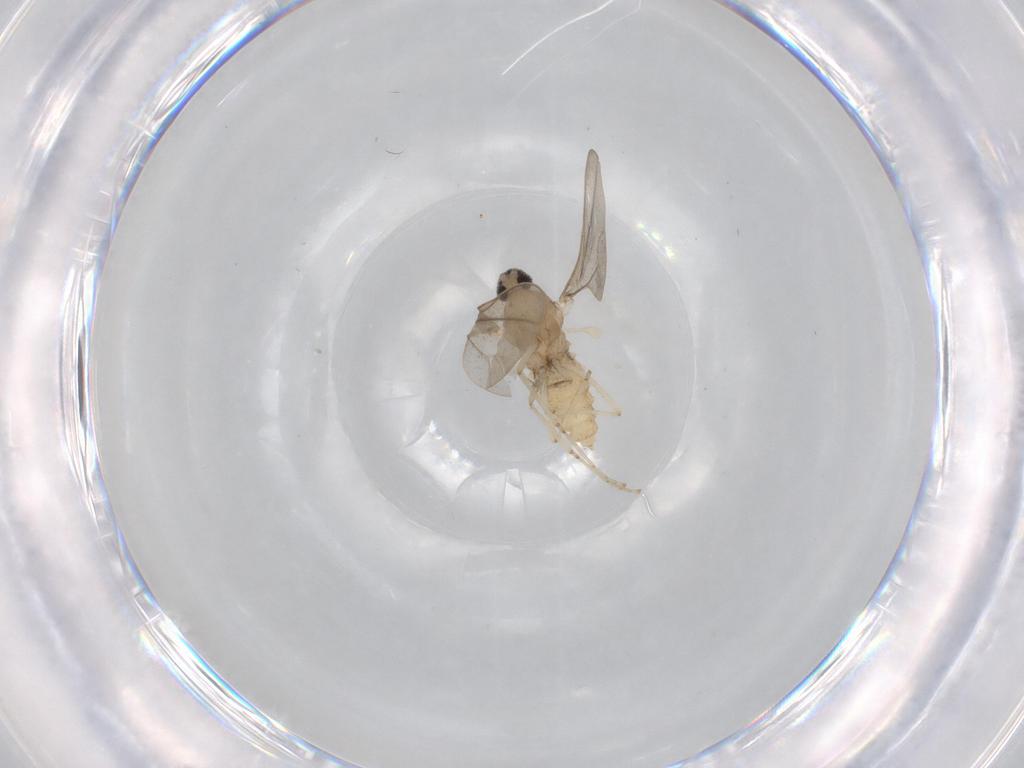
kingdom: Animalia
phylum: Arthropoda
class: Insecta
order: Diptera
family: Cecidomyiidae
